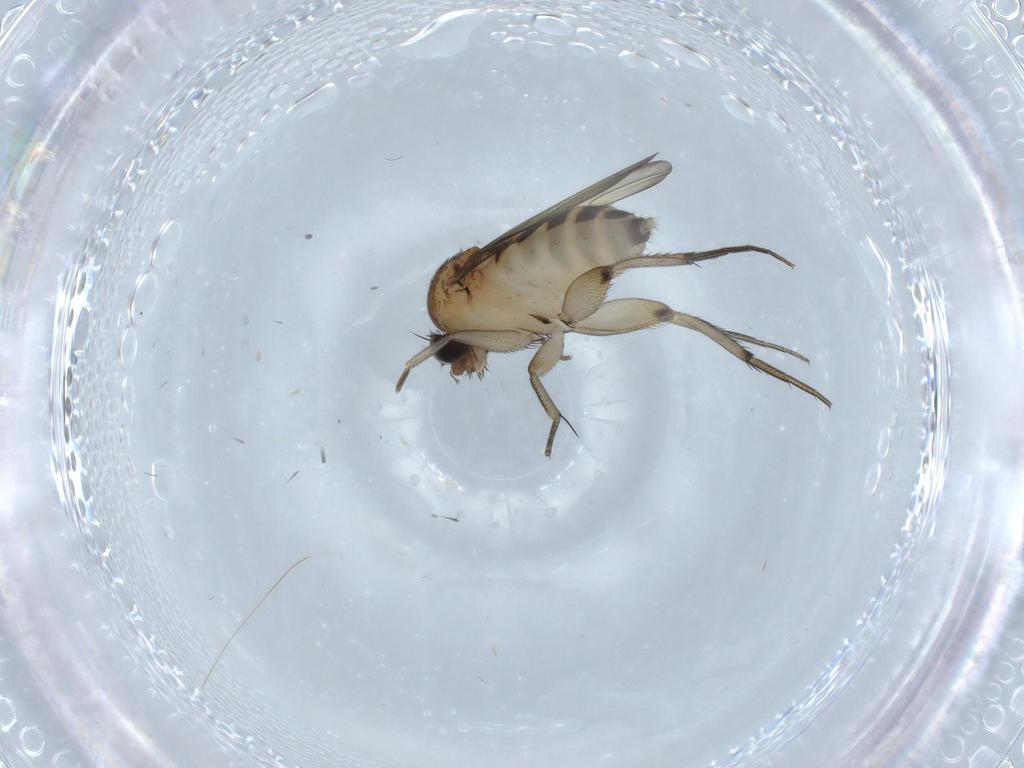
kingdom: Animalia
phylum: Arthropoda
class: Insecta
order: Diptera
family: Phoridae
